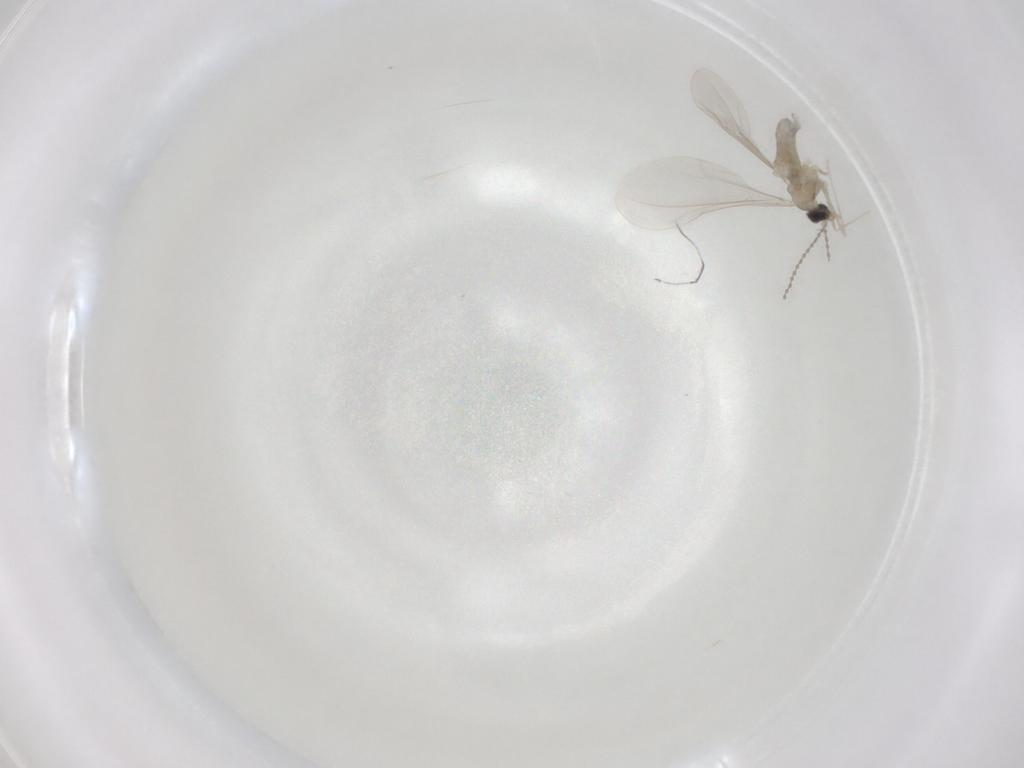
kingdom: Animalia
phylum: Arthropoda
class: Insecta
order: Diptera
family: Cecidomyiidae
